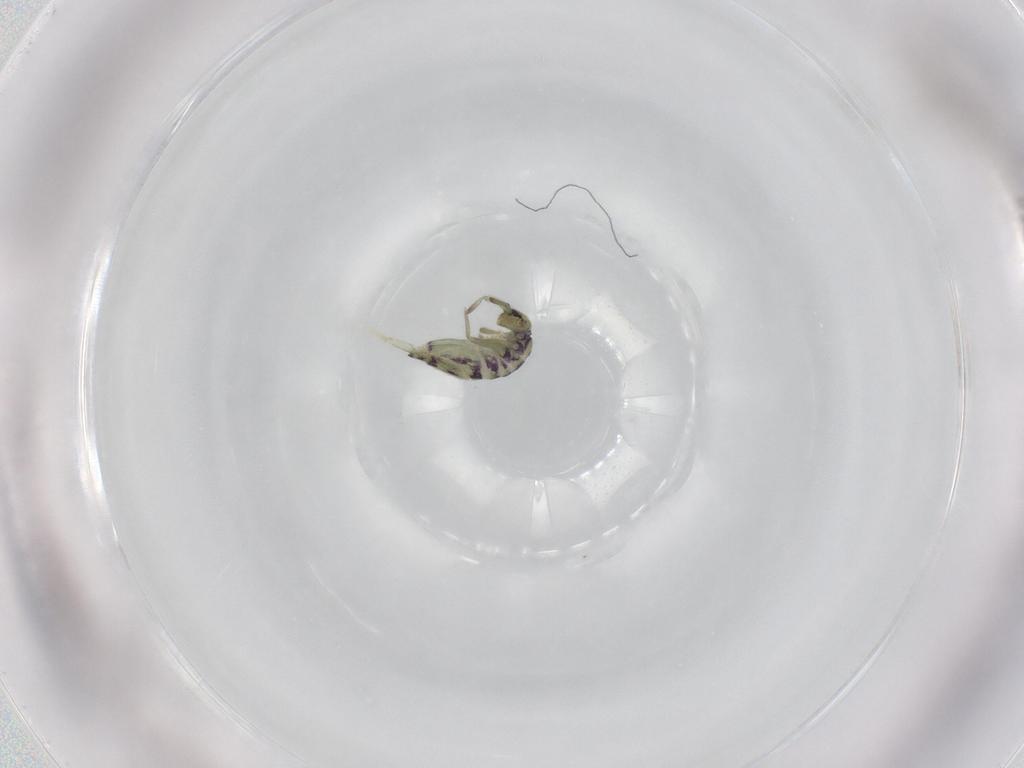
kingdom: Animalia
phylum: Arthropoda
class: Collembola
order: Entomobryomorpha
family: Entomobryidae
